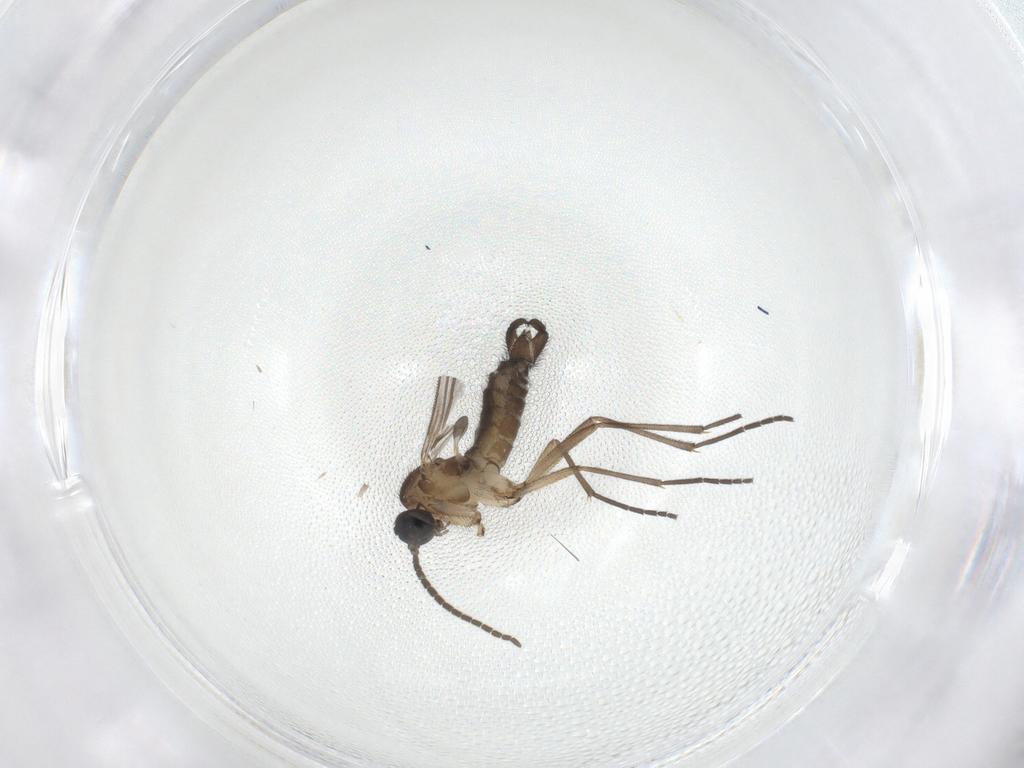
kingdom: Animalia
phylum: Arthropoda
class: Insecta
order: Diptera
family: Sciaridae
